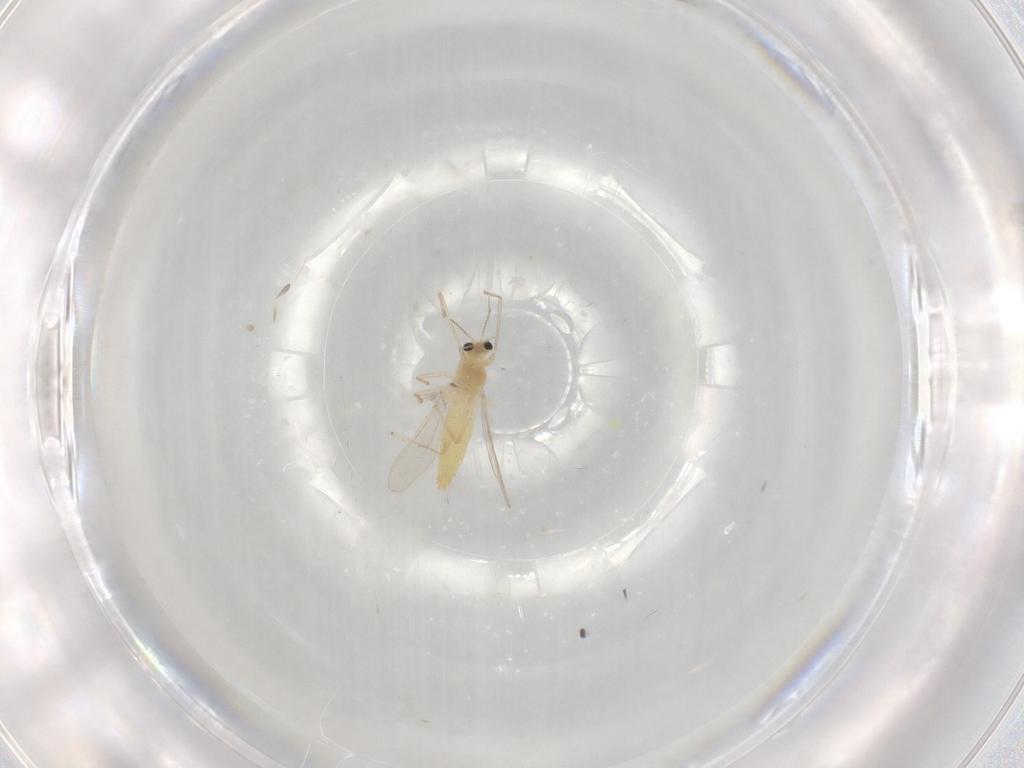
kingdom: Animalia
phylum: Arthropoda
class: Insecta
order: Diptera
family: Chironomidae
